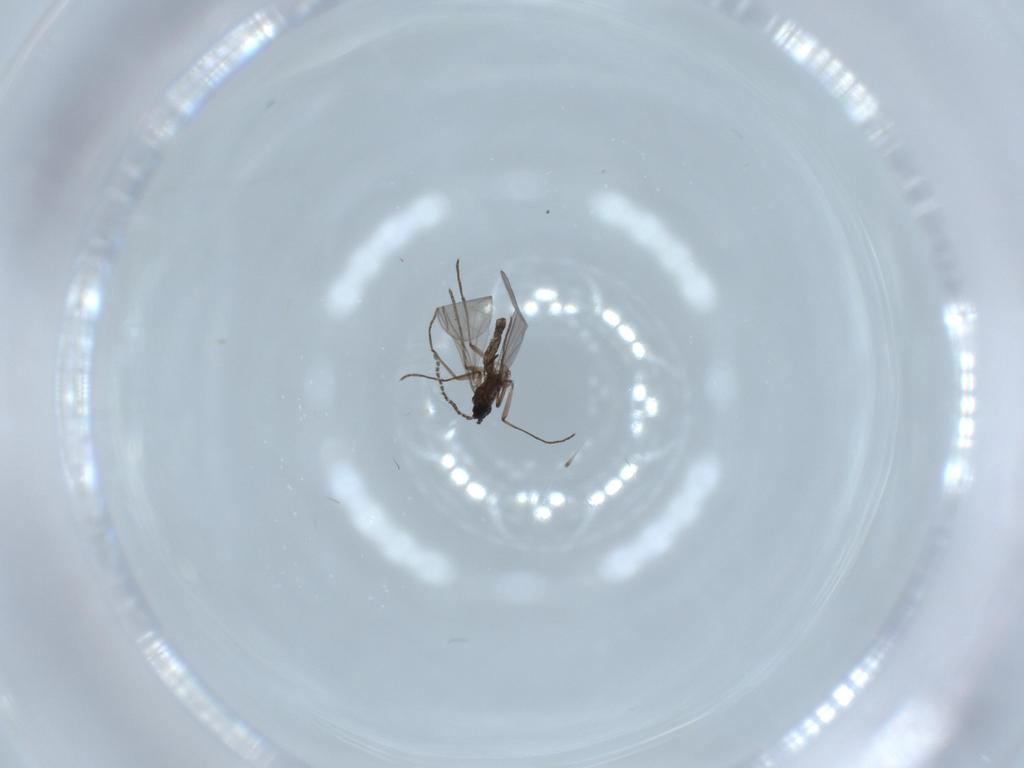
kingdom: Animalia
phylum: Arthropoda
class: Insecta
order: Diptera
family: Sciaridae
